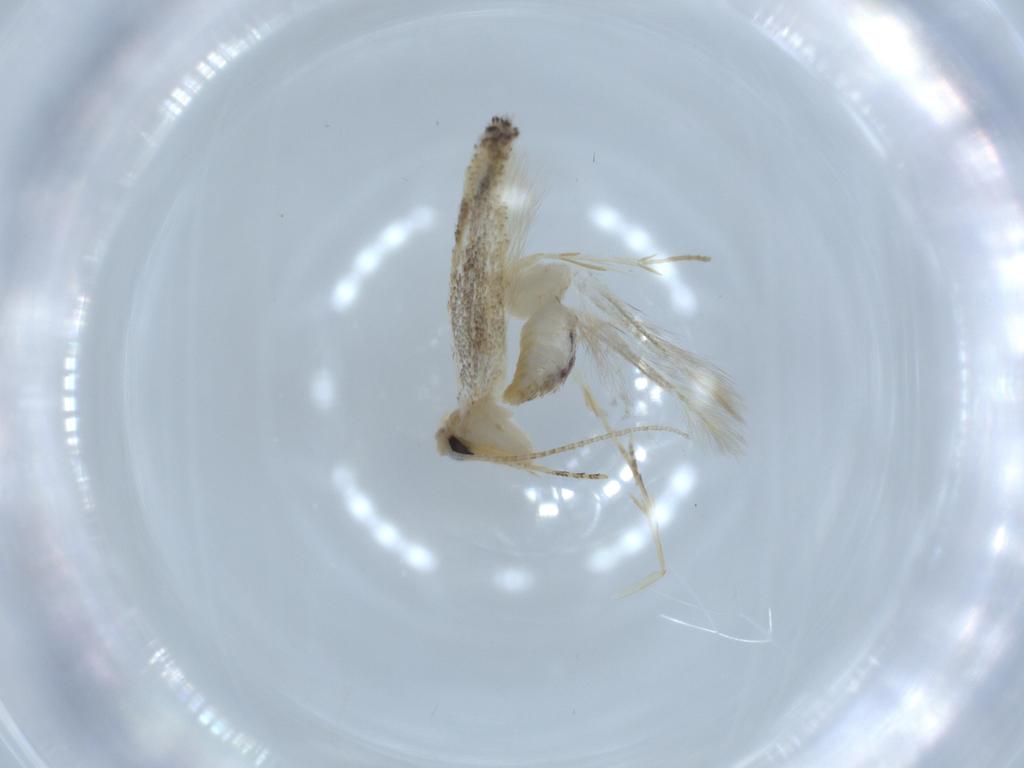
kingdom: Animalia
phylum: Arthropoda
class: Insecta
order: Lepidoptera
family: Bucculatricidae
